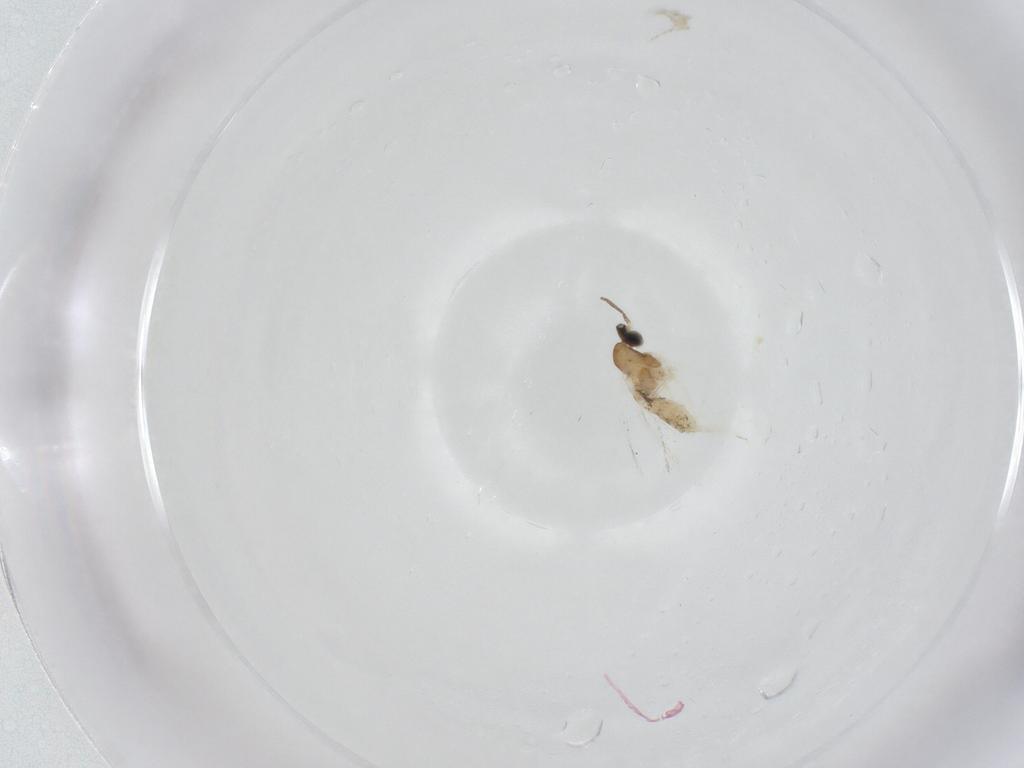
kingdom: Animalia
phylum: Arthropoda
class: Insecta
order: Diptera
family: Cecidomyiidae
